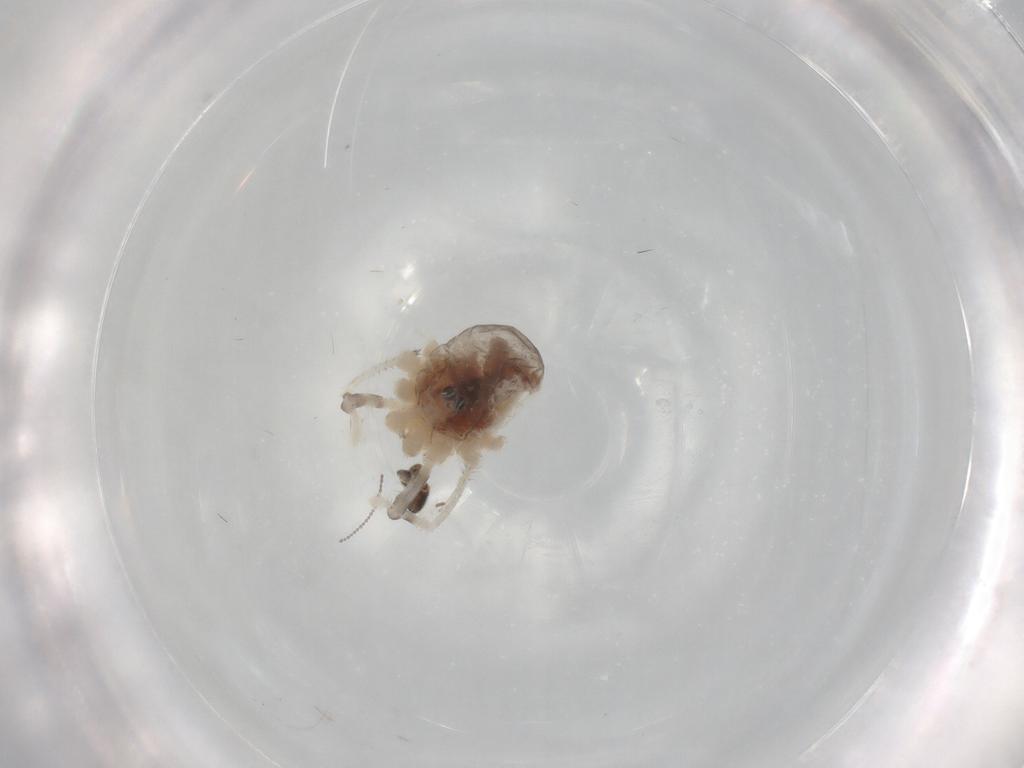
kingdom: Animalia
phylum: Arthropoda
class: Arachnida
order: Opiliones
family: Sclerosomatidae
